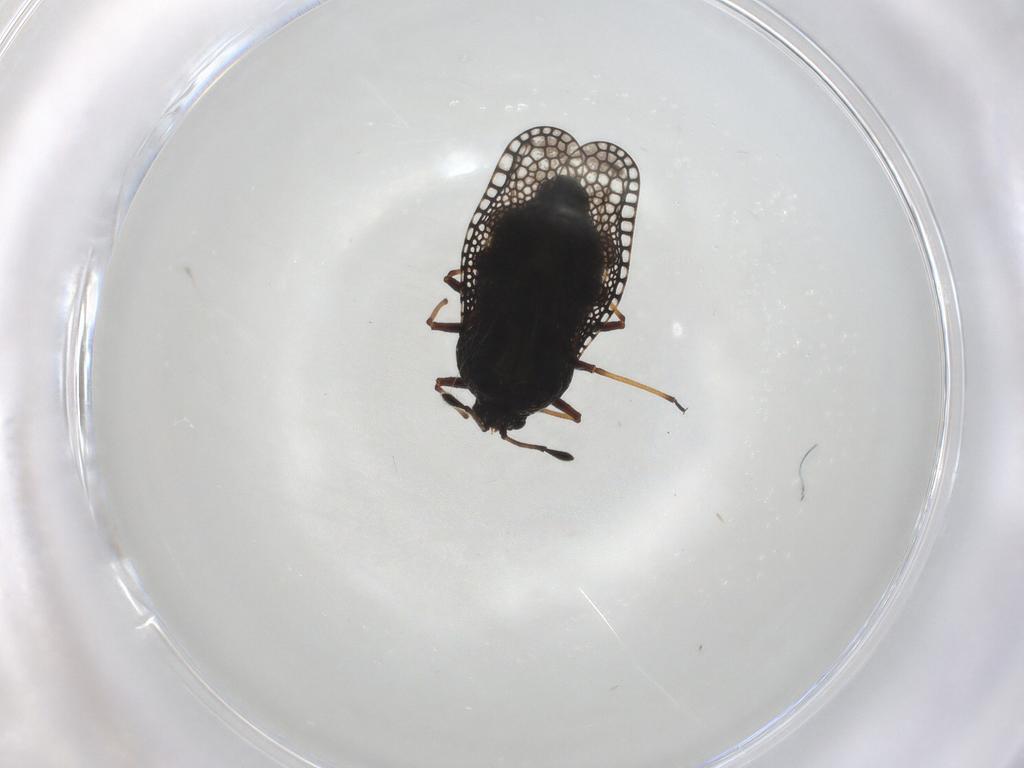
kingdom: Animalia
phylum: Arthropoda
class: Insecta
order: Hemiptera
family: Tingidae
